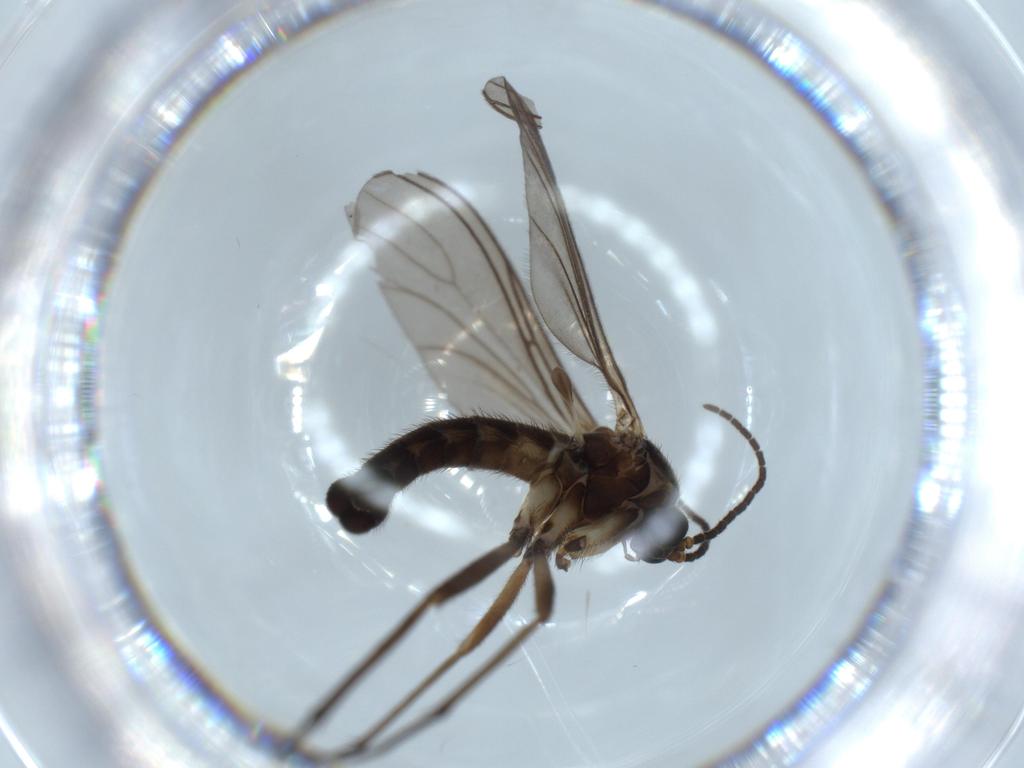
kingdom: Animalia
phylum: Arthropoda
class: Insecta
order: Diptera
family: Sciaridae
